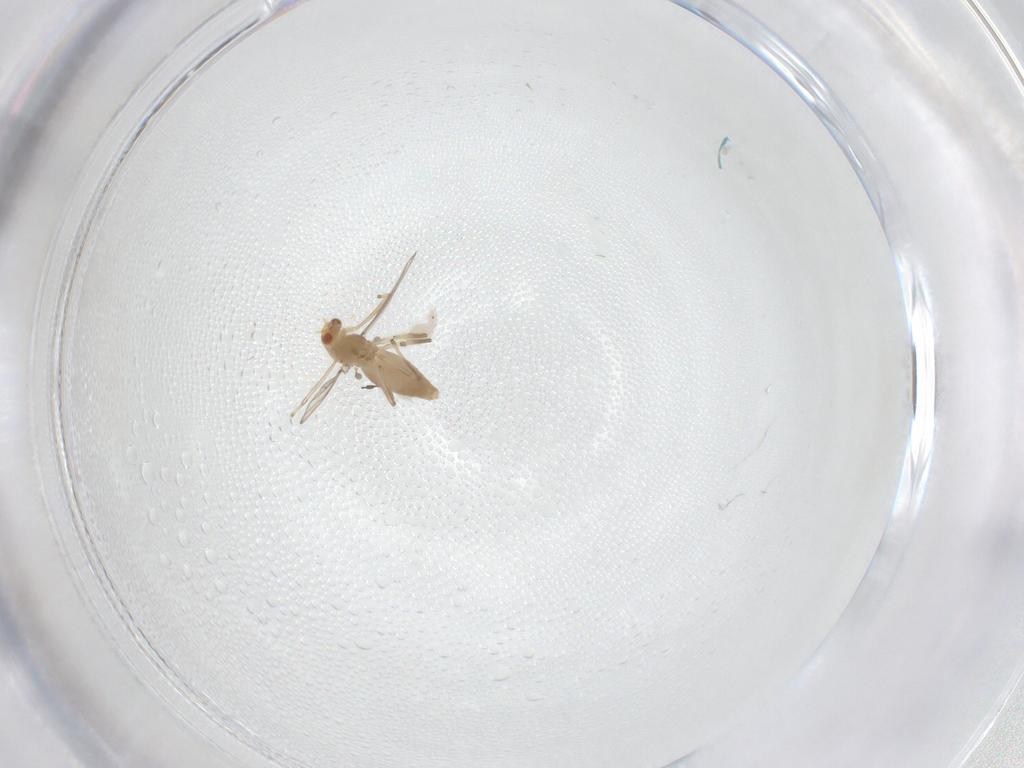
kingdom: Animalia
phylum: Arthropoda
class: Insecta
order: Diptera
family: Chironomidae
